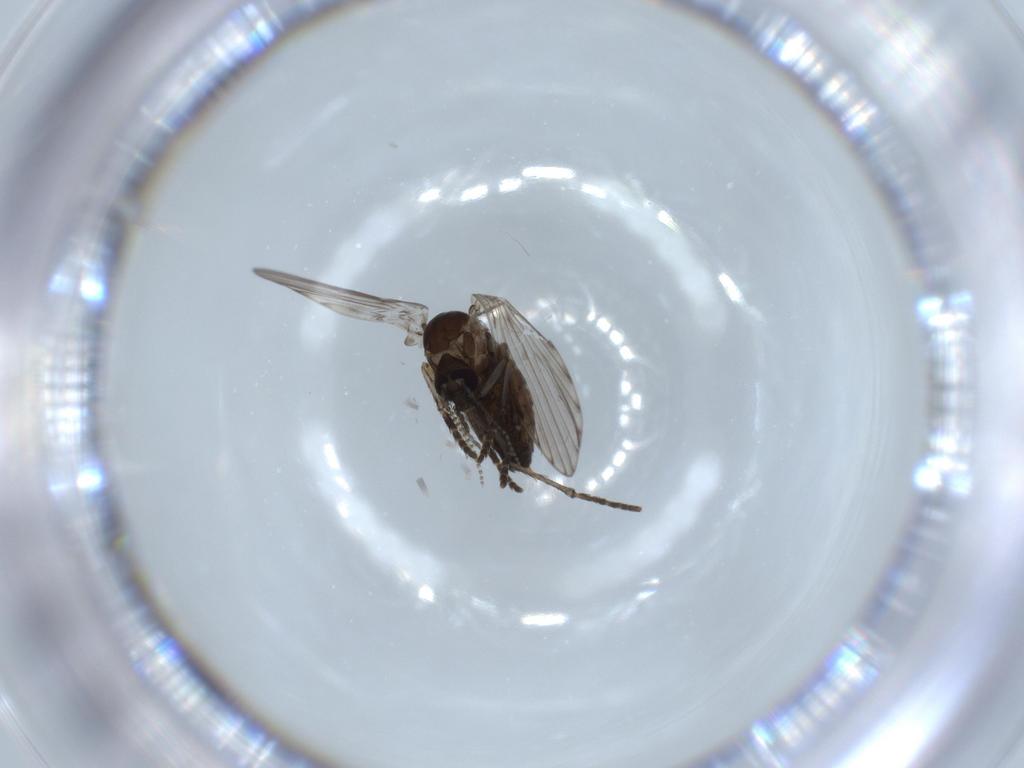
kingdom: Animalia
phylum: Arthropoda
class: Insecta
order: Diptera
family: Psychodidae
